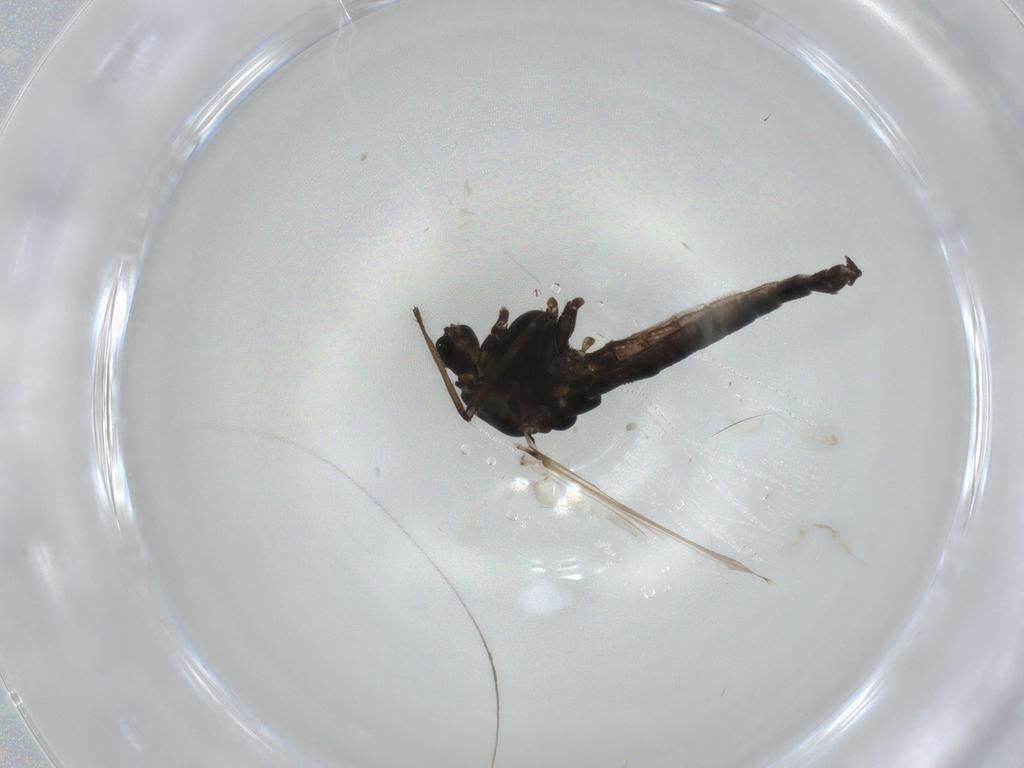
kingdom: Animalia
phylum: Arthropoda
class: Insecta
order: Diptera
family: Chironomidae
